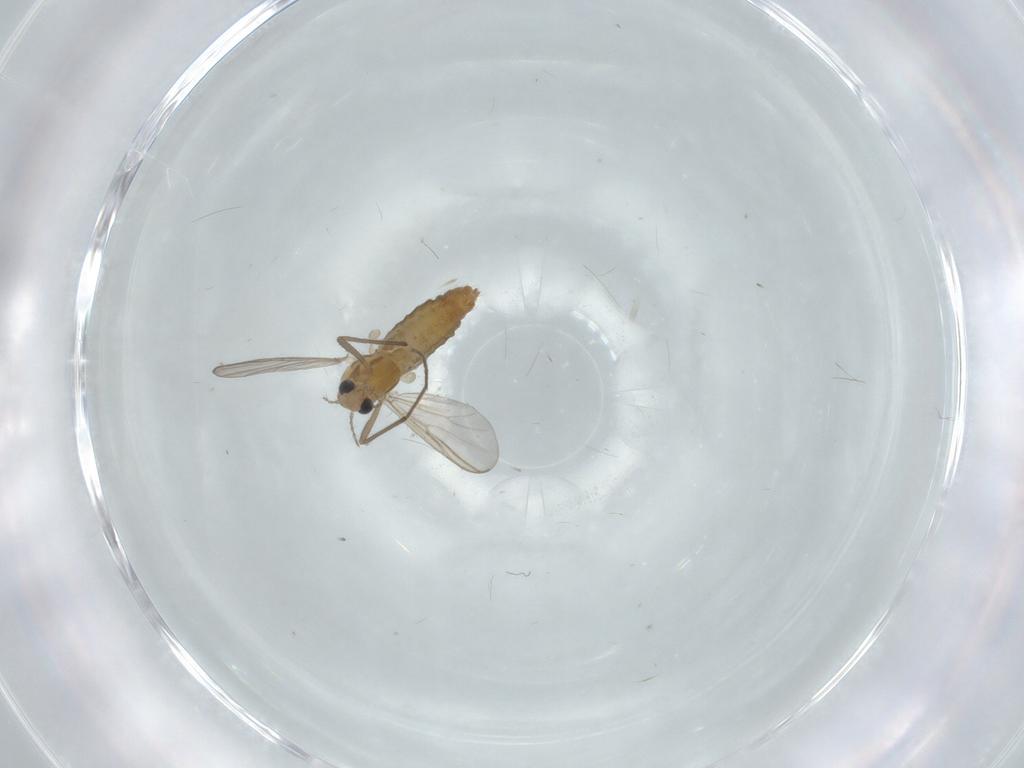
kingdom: Animalia
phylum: Arthropoda
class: Insecta
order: Diptera
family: Chironomidae
